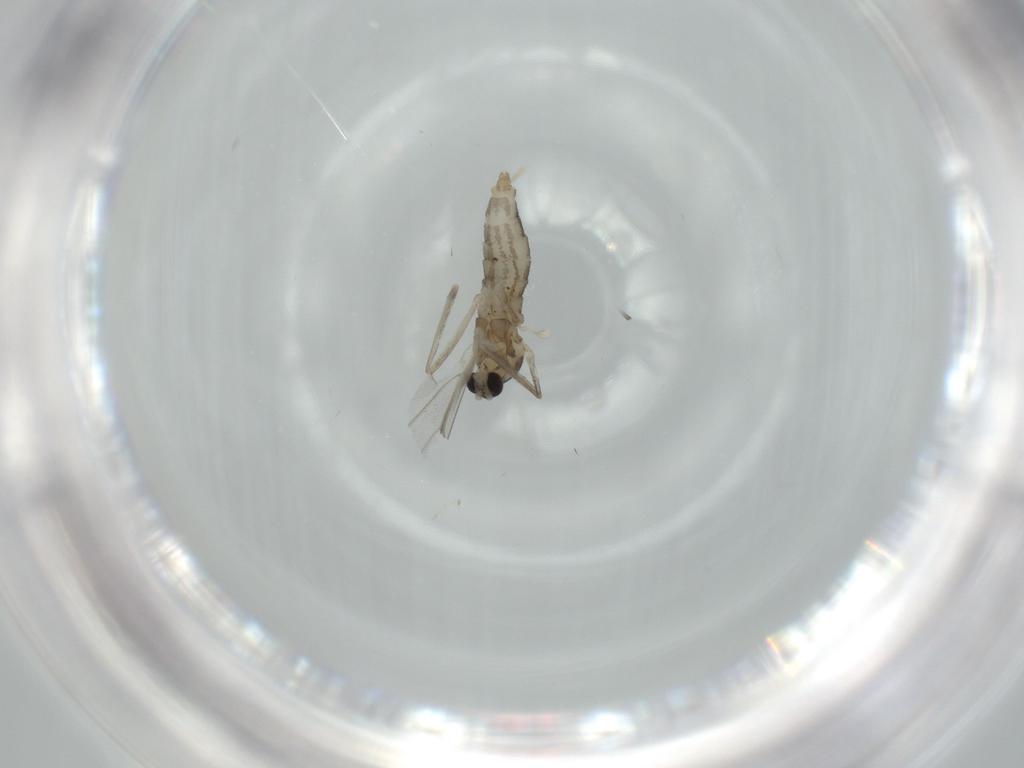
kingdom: Animalia
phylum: Arthropoda
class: Insecta
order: Diptera
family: Cecidomyiidae
